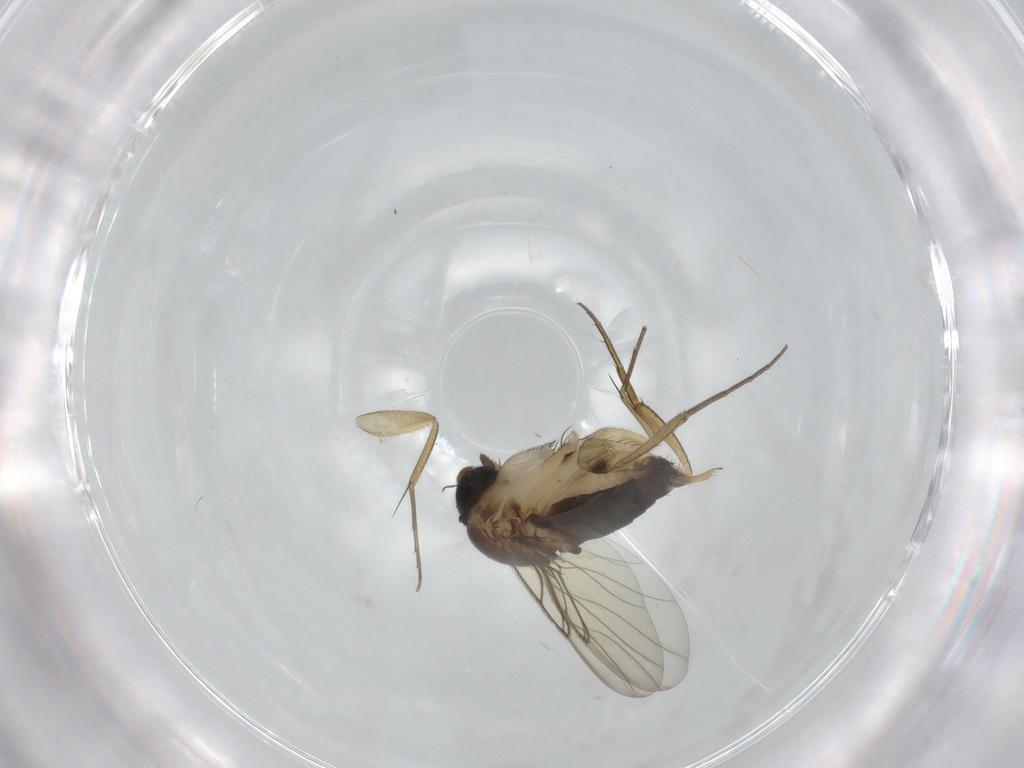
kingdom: Animalia
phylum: Arthropoda
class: Insecta
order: Diptera
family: Phoridae
